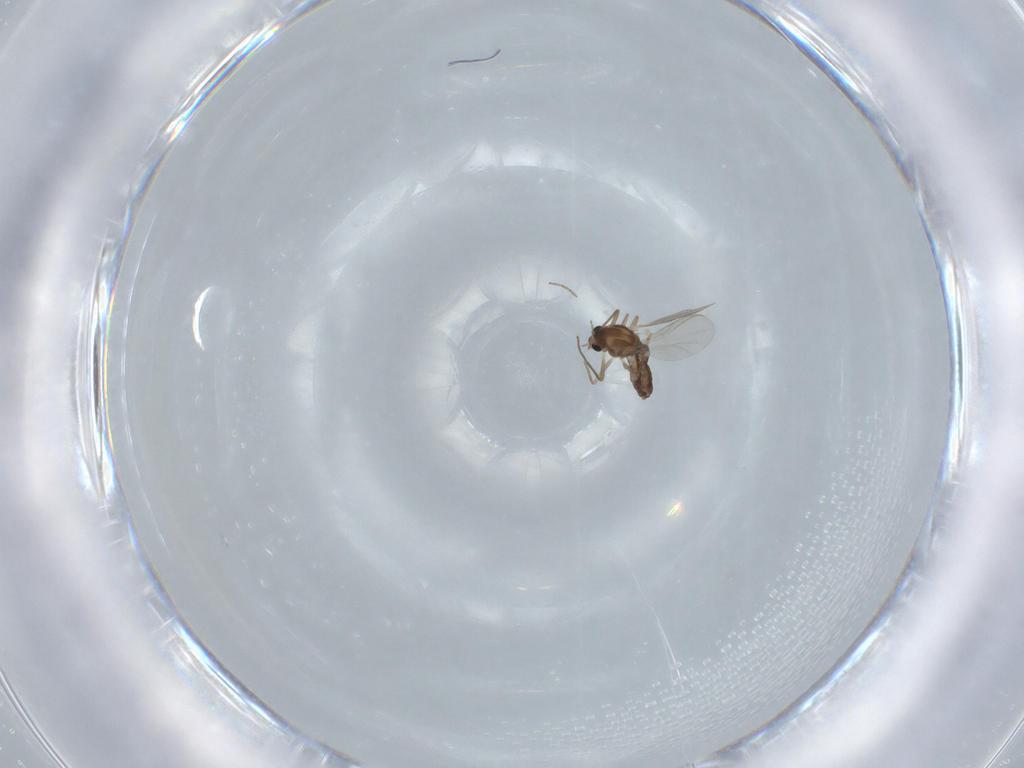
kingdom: Animalia
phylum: Arthropoda
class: Insecta
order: Diptera
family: Chironomidae
